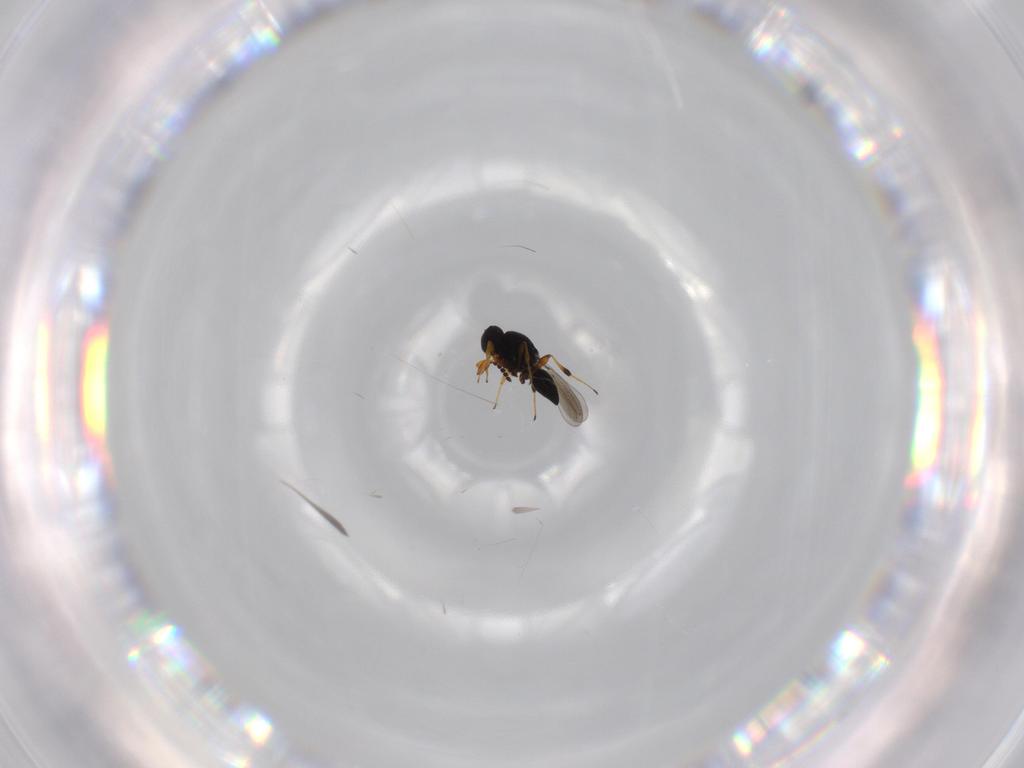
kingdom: Animalia
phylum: Arthropoda
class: Insecta
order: Hymenoptera
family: Platygastridae
